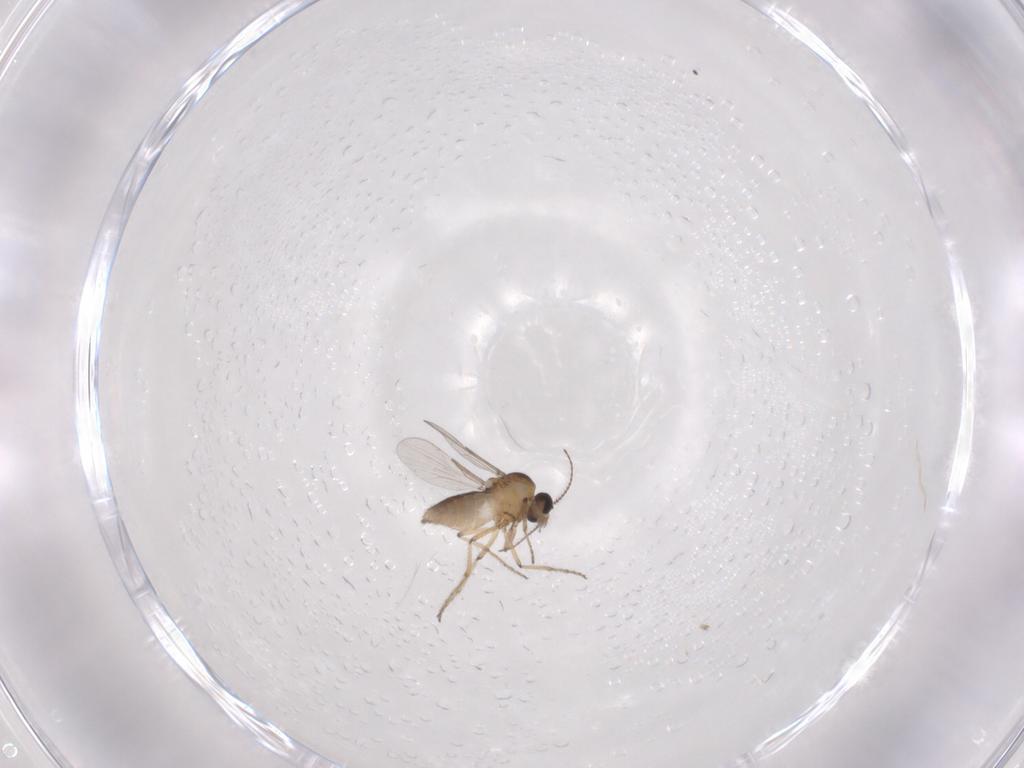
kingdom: Animalia
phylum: Arthropoda
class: Insecta
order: Diptera
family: Ceratopogonidae
